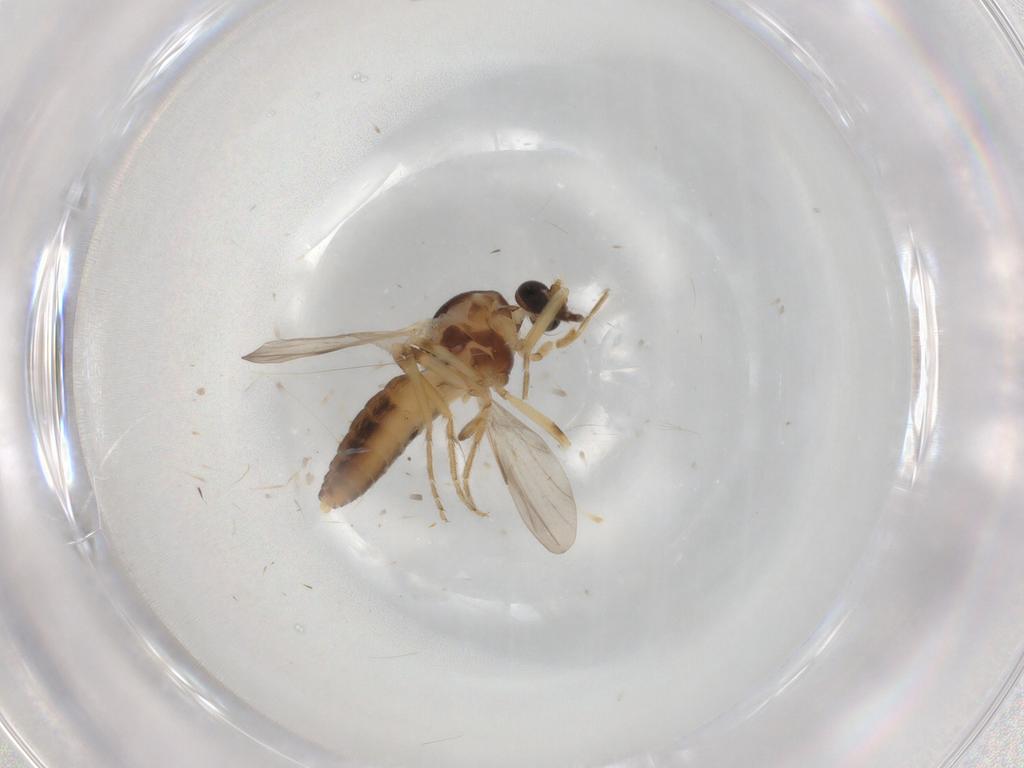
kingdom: Animalia
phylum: Arthropoda
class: Insecta
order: Diptera
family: Ceratopogonidae
